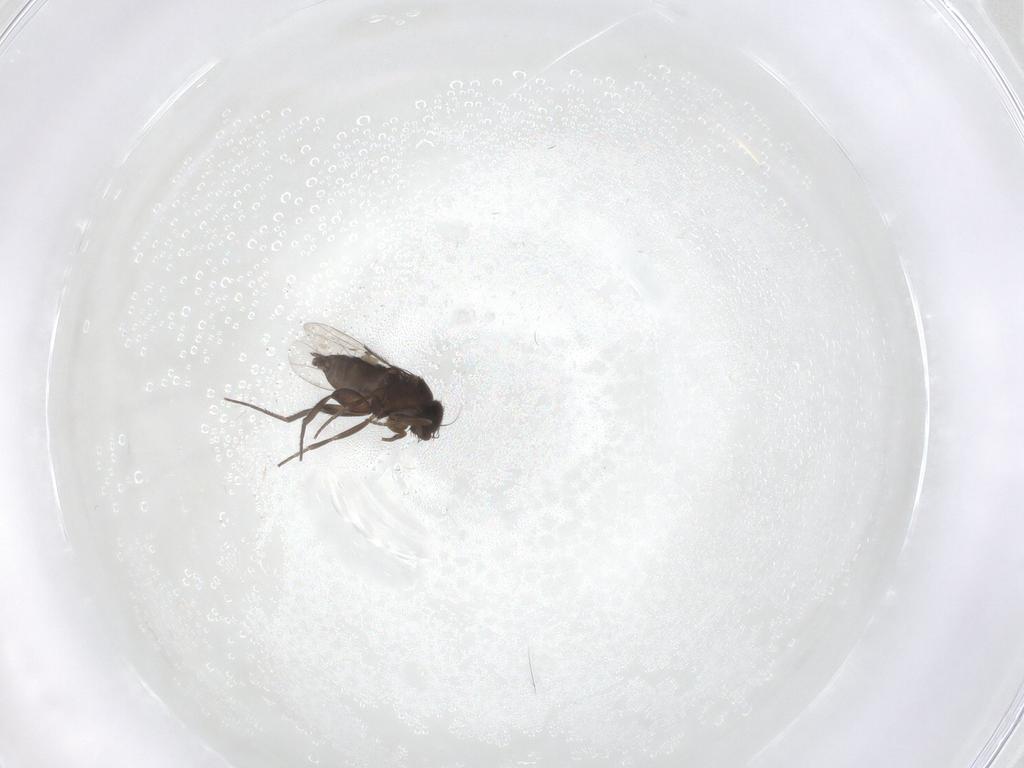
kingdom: Animalia
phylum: Arthropoda
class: Insecta
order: Diptera
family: Phoridae
